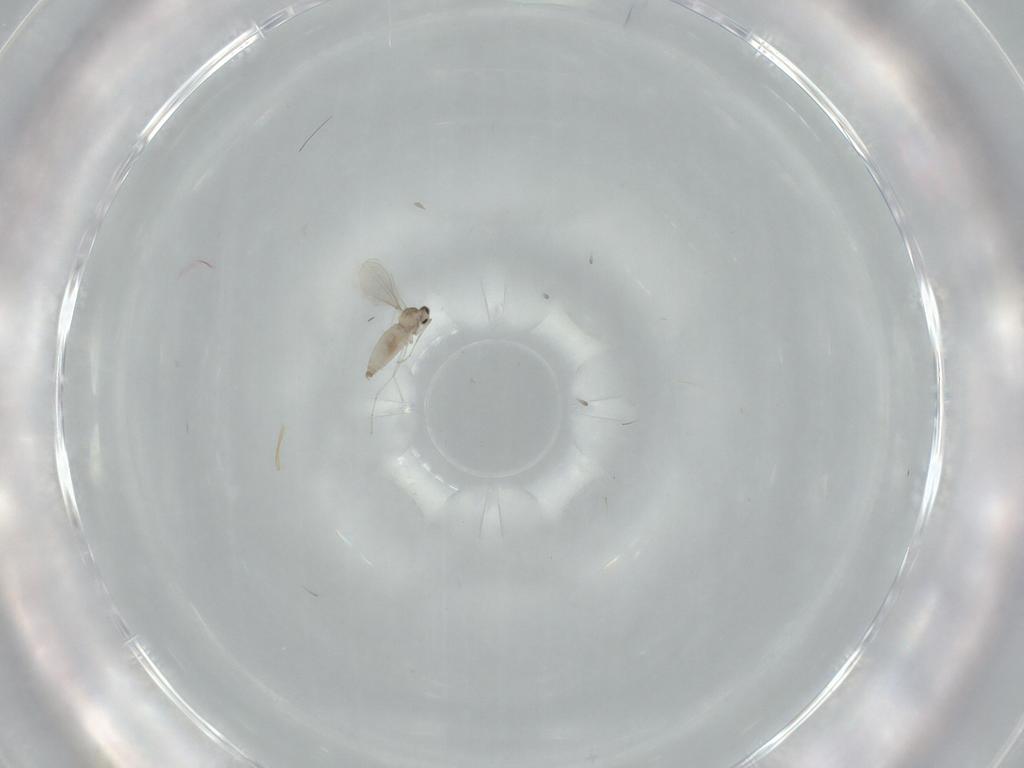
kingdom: Animalia
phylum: Arthropoda
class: Insecta
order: Diptera
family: Cecidomyiidae
